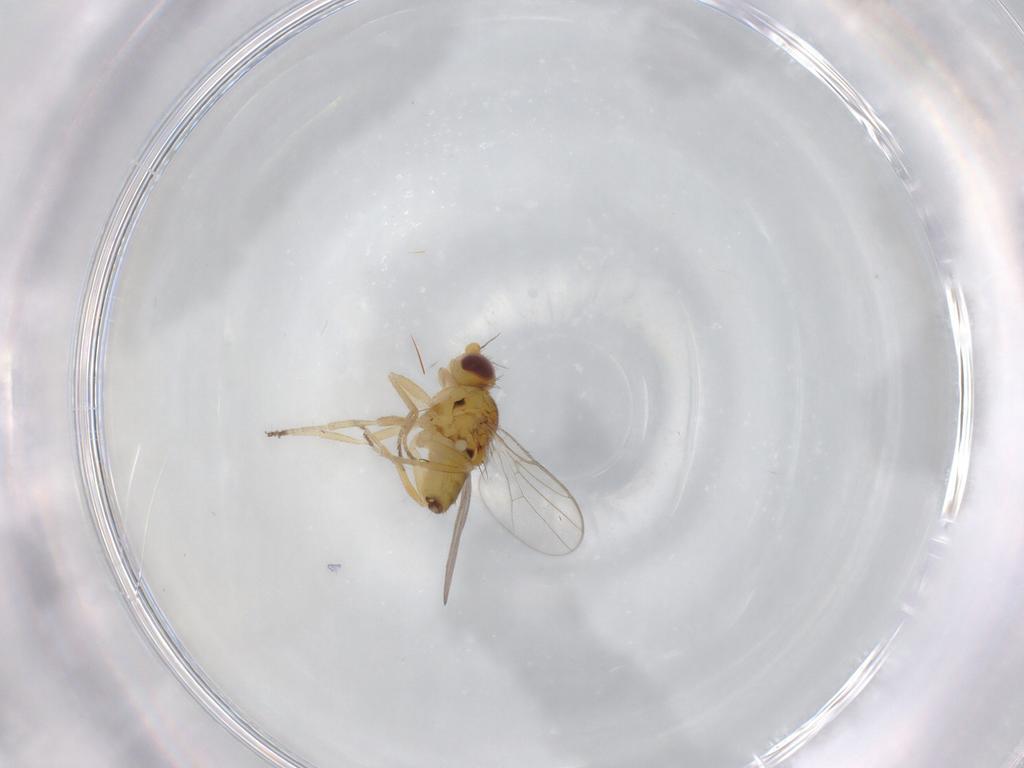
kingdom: Animalia
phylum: Arthropoda
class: Insecta
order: Diptera
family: Chloropidae
